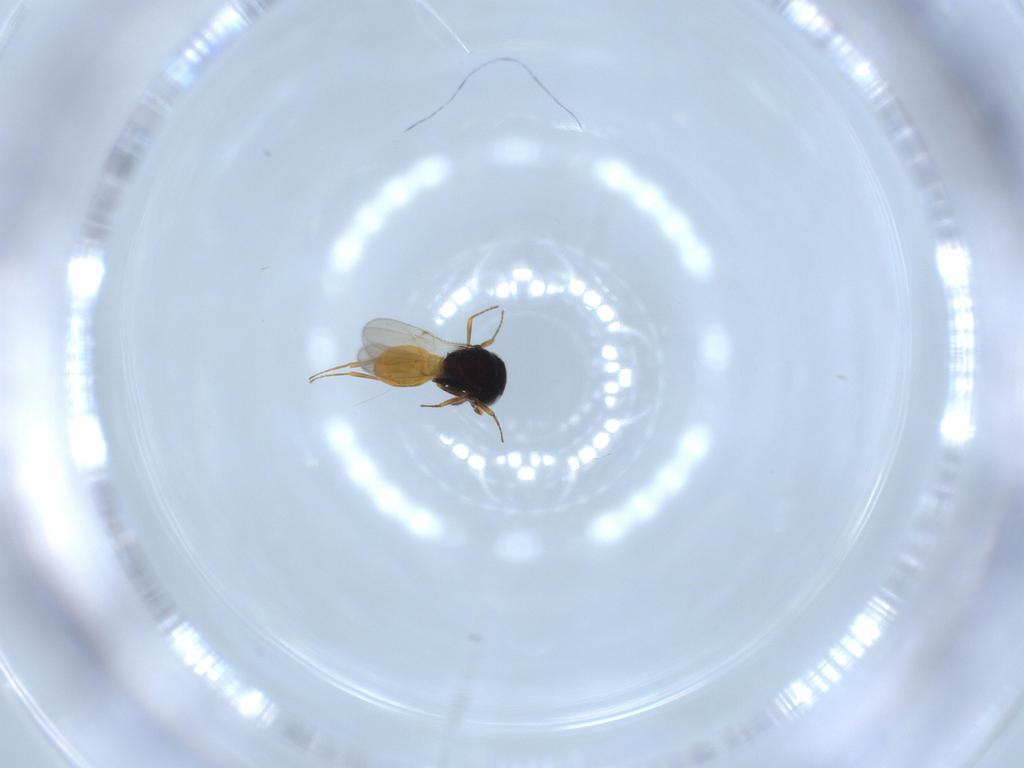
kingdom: Animalia
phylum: Arthropoda
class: Insecta
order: Hymenoptera
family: Scelionidae
